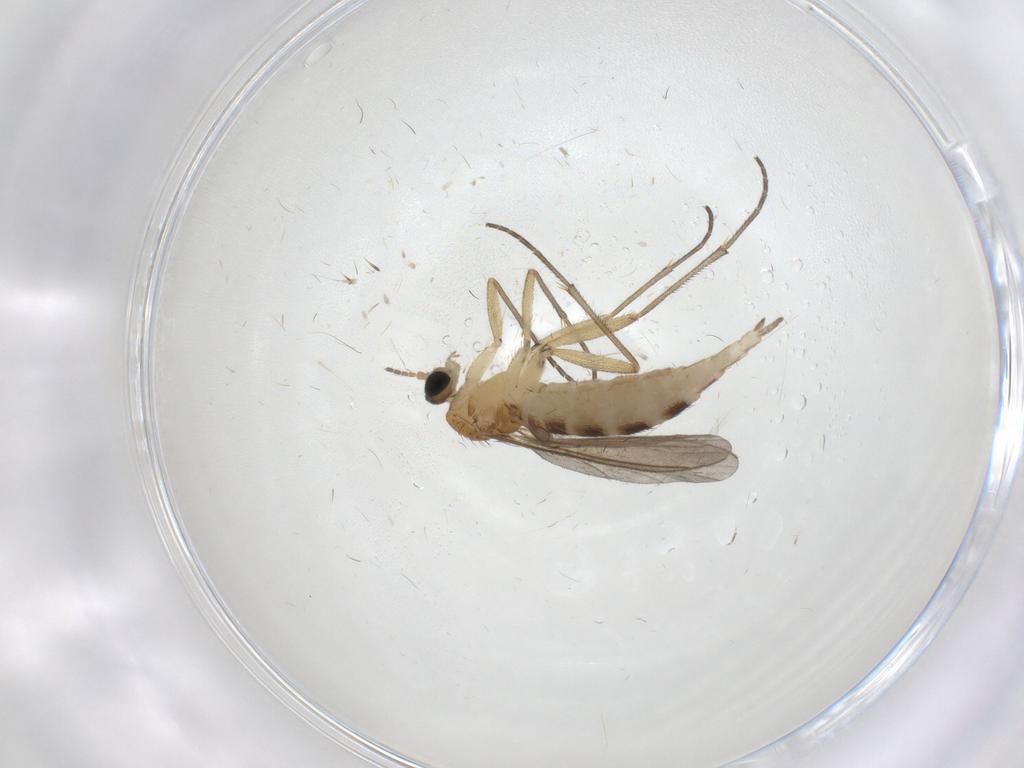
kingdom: Animalia
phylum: Arthropoda
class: Insecta
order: Diptera
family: Sciaridae
